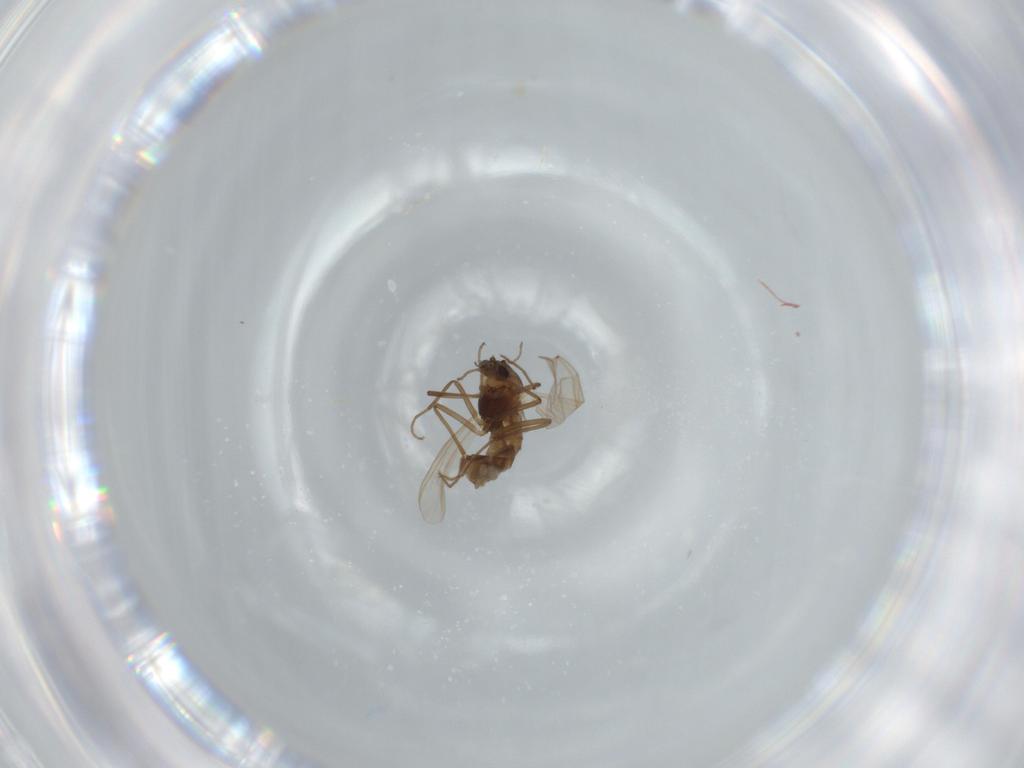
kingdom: Animalia
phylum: Arthropoda
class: Insecta
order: Diptera
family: Chironomidae
